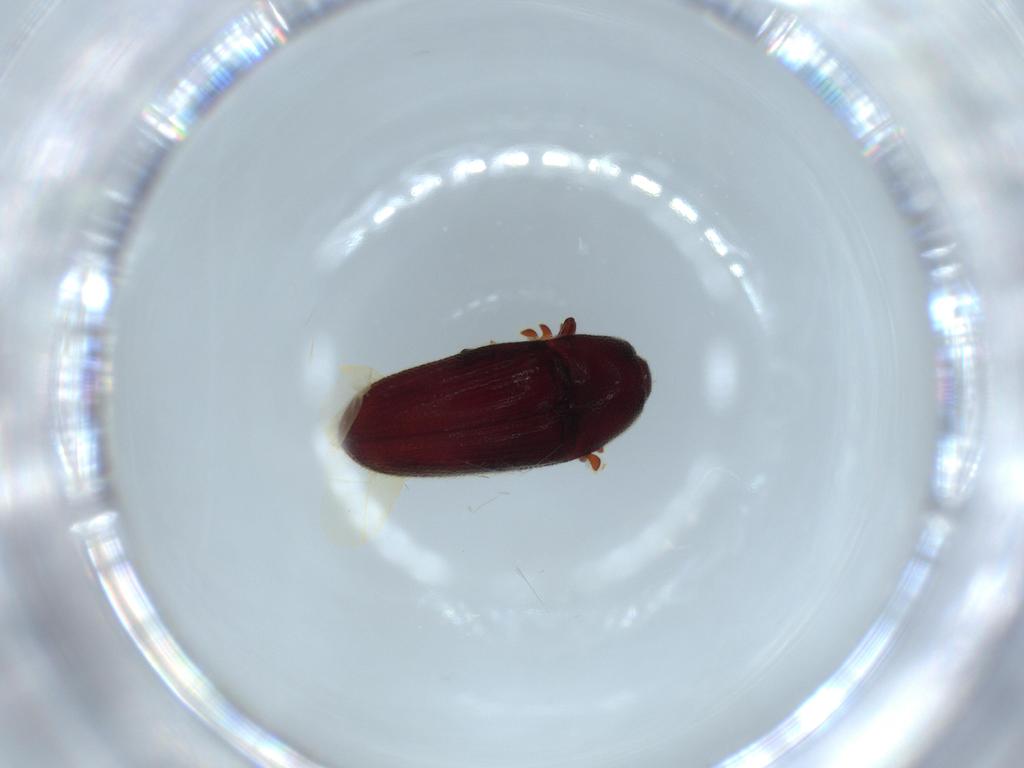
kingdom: Animalia
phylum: Arthropoda
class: Insecta
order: Coleoptera
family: Throscidae
